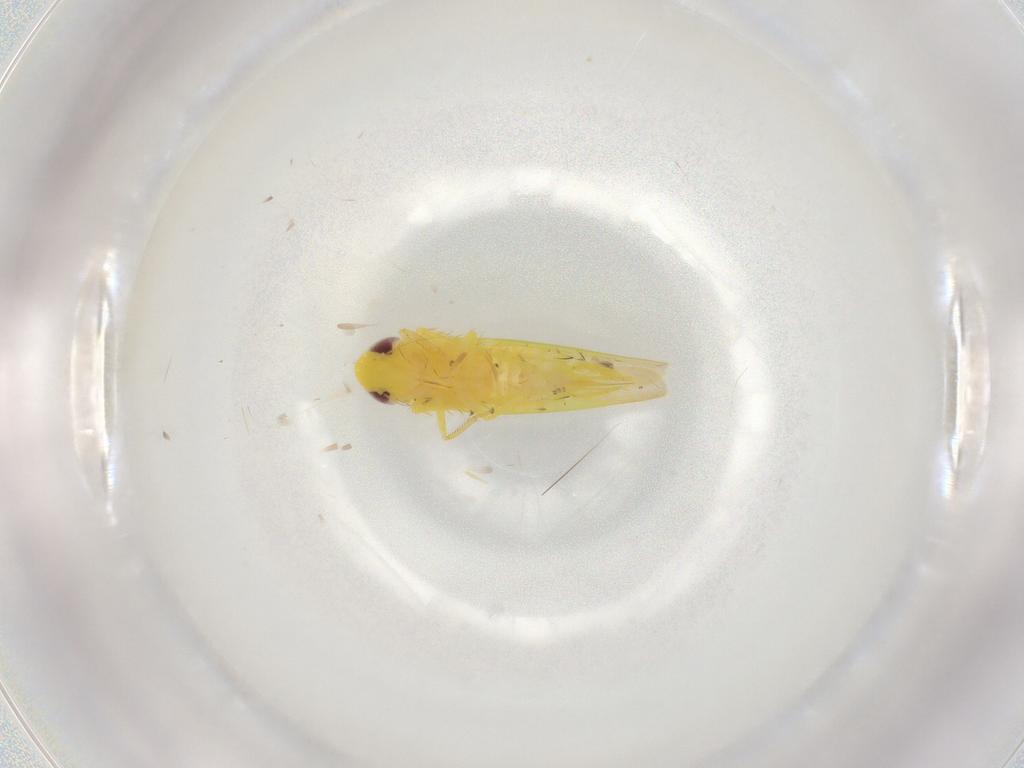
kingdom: Animalia
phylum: Arthropoda
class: Insecta
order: Hemiptera
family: Cicadellidae
